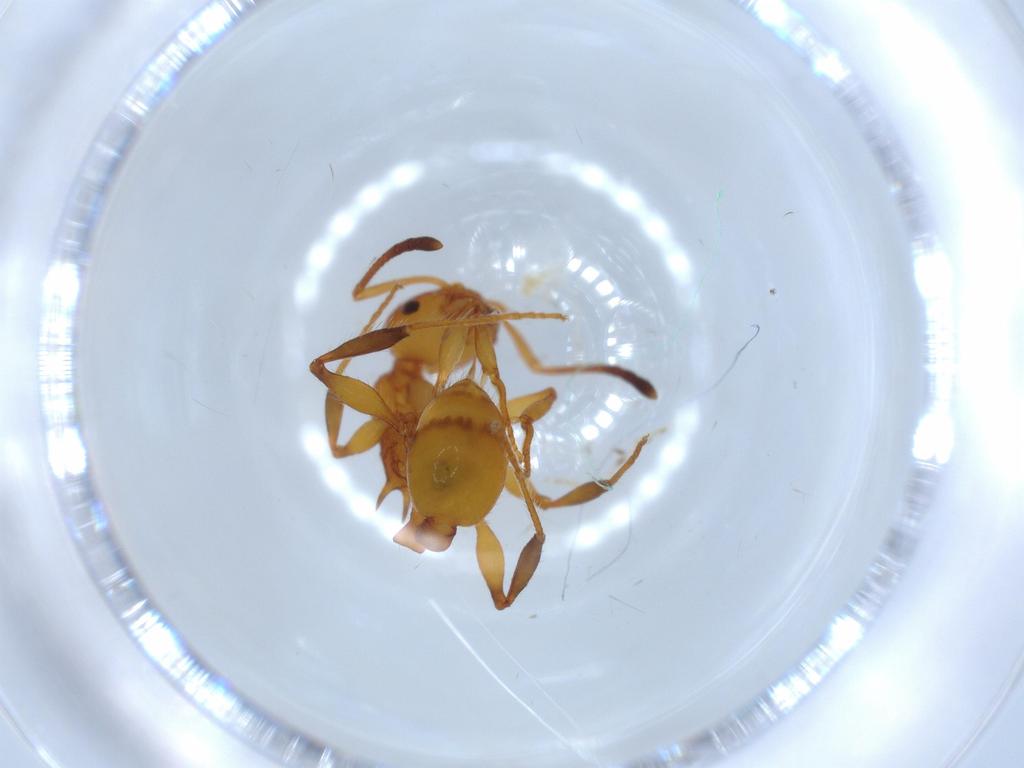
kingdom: Animalia
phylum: Arthropoda
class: Insecta
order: Hymenoptera
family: Formicidae
